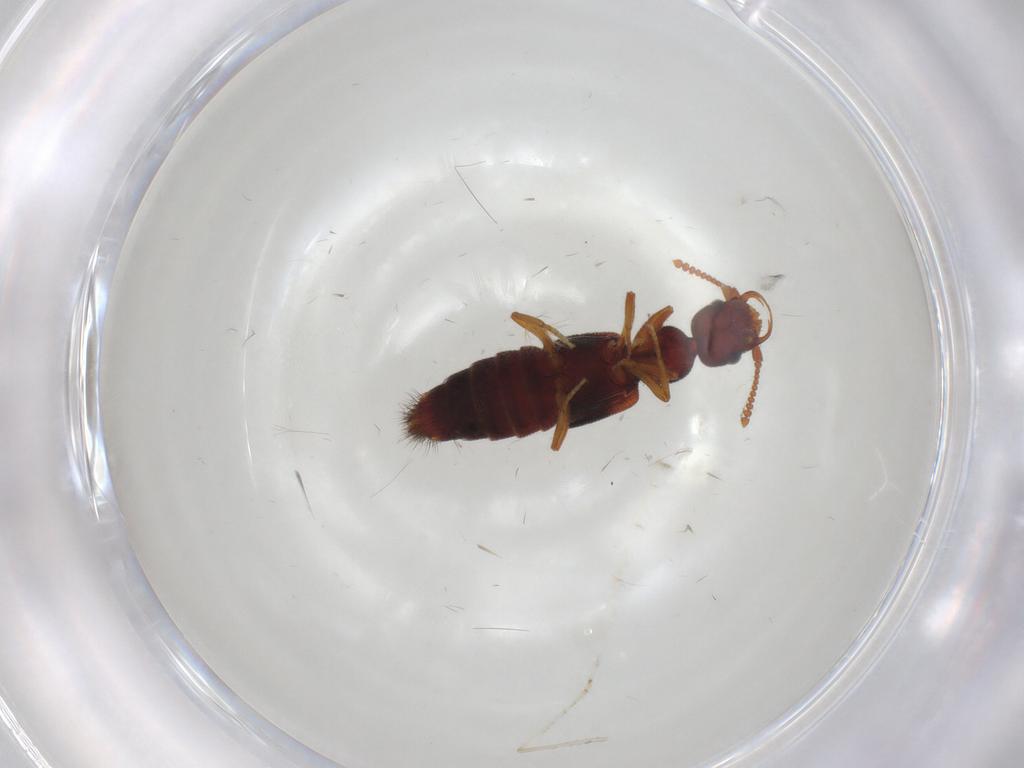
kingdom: Animalia
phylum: Arthropoda
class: Insecta
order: Coleoptera
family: Staphylinidae
